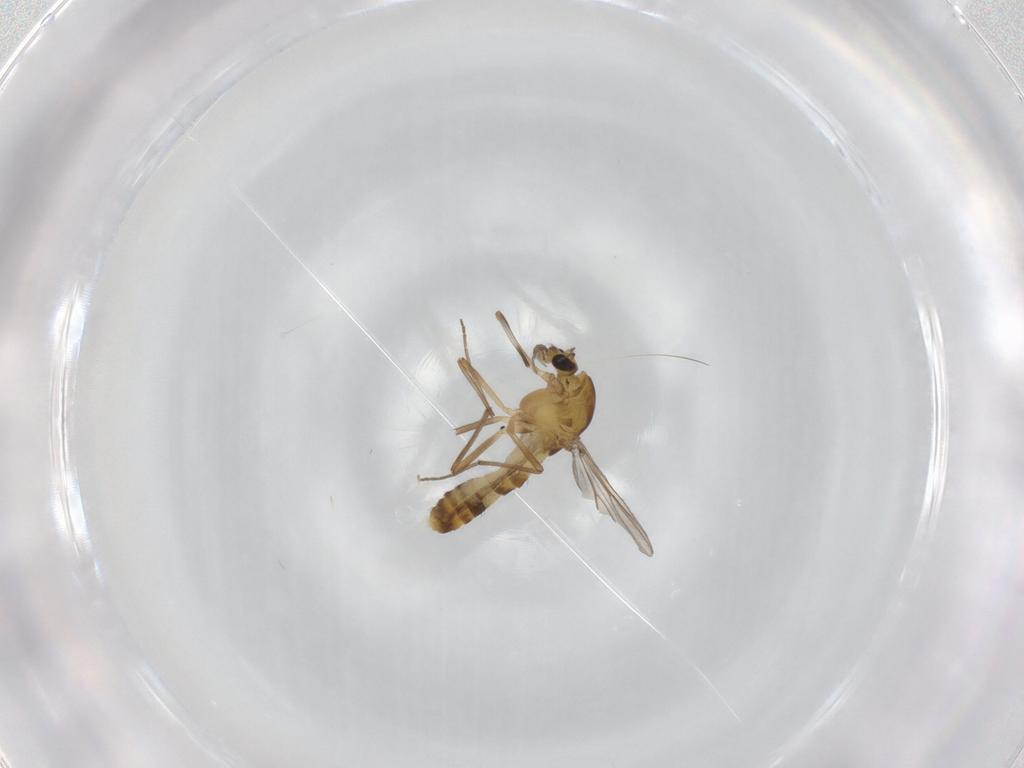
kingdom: Animalia
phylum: Arthropoda
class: Insecta
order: Diptera
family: Chironomidae
